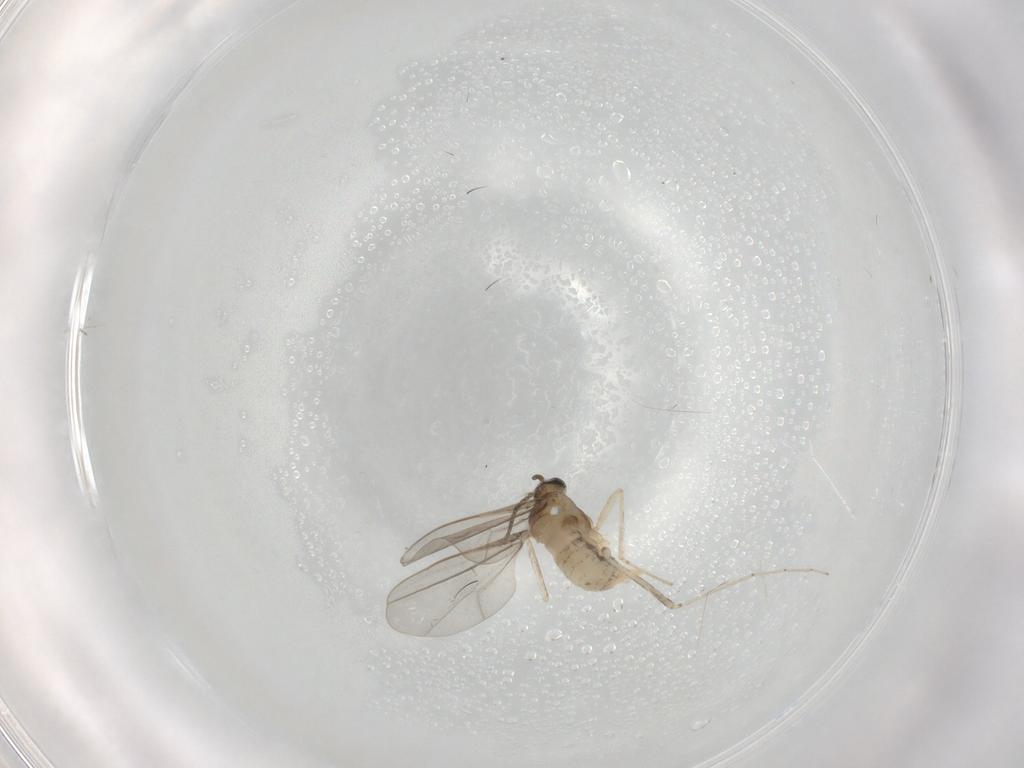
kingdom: Animalia
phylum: Arthropoda
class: Insecta
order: Diptera
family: Cecidomyiidae
